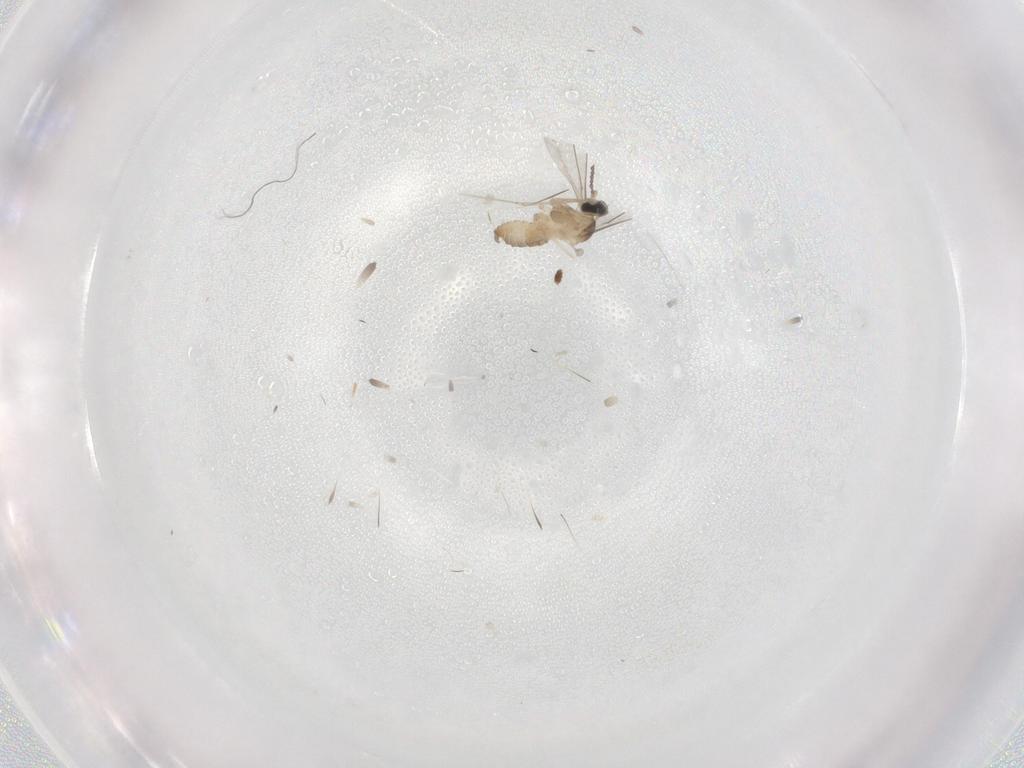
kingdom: Animalia
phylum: Arthropoda
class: Insecta
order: Diptera
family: Cecidomyiidae
